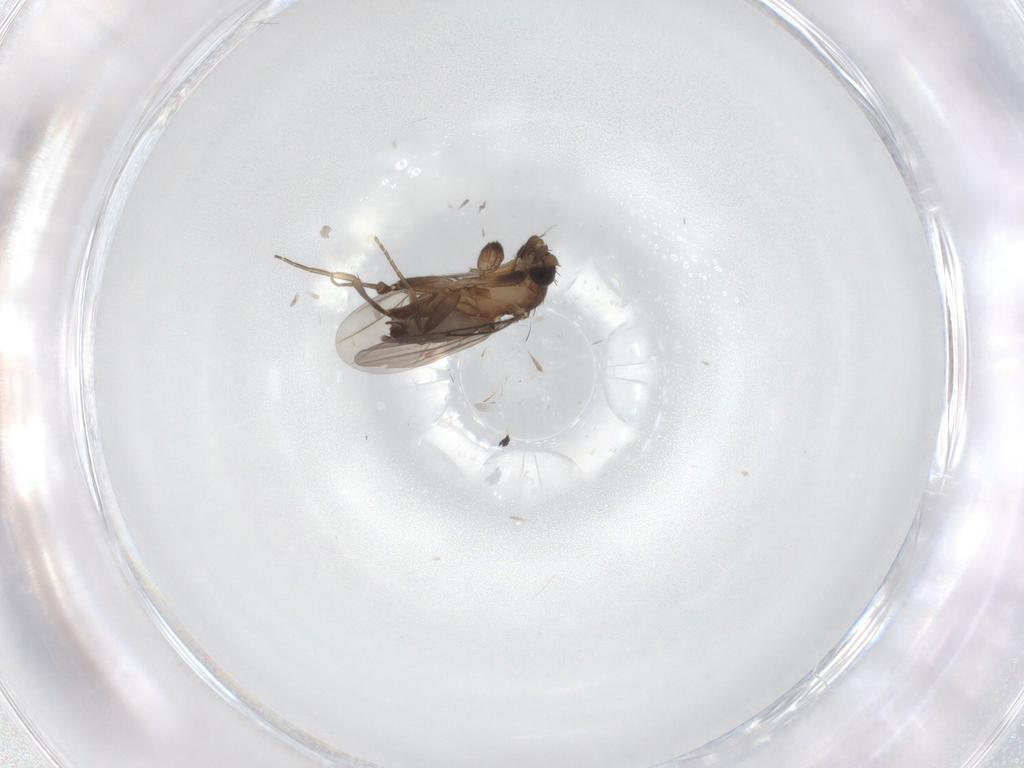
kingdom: Animalia
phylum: Arthropoda
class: Insecta
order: Diptera
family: Phoridae
